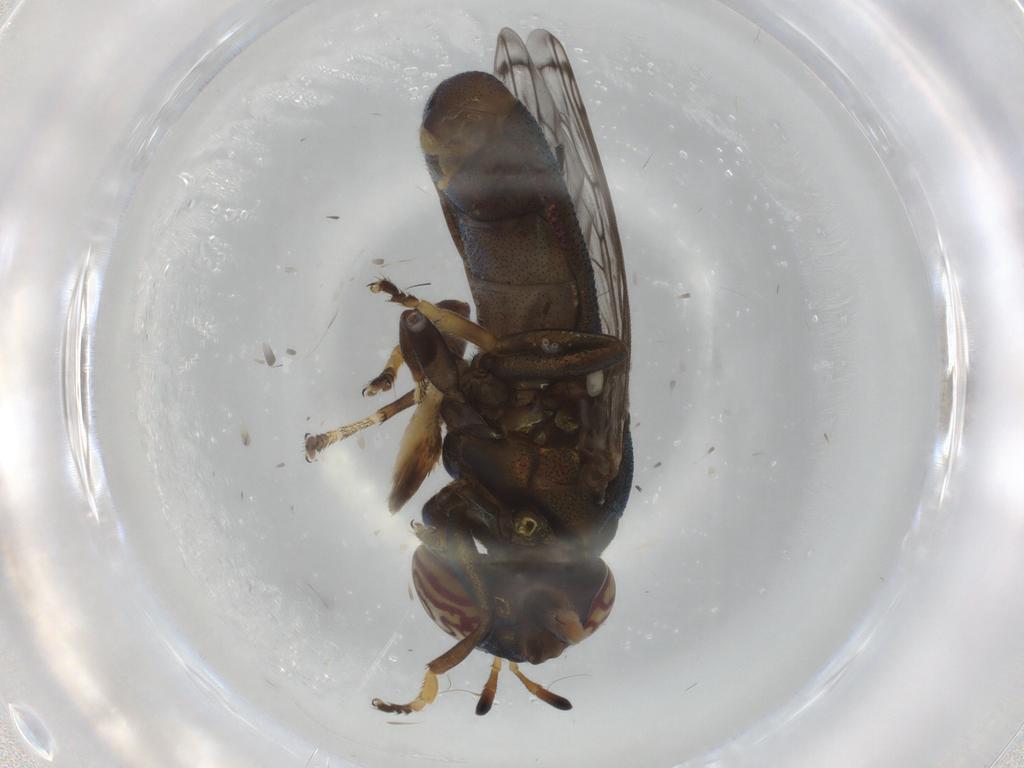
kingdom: Animalia
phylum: Arthropoda
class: Insecta
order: Diptera
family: Syrphidae
